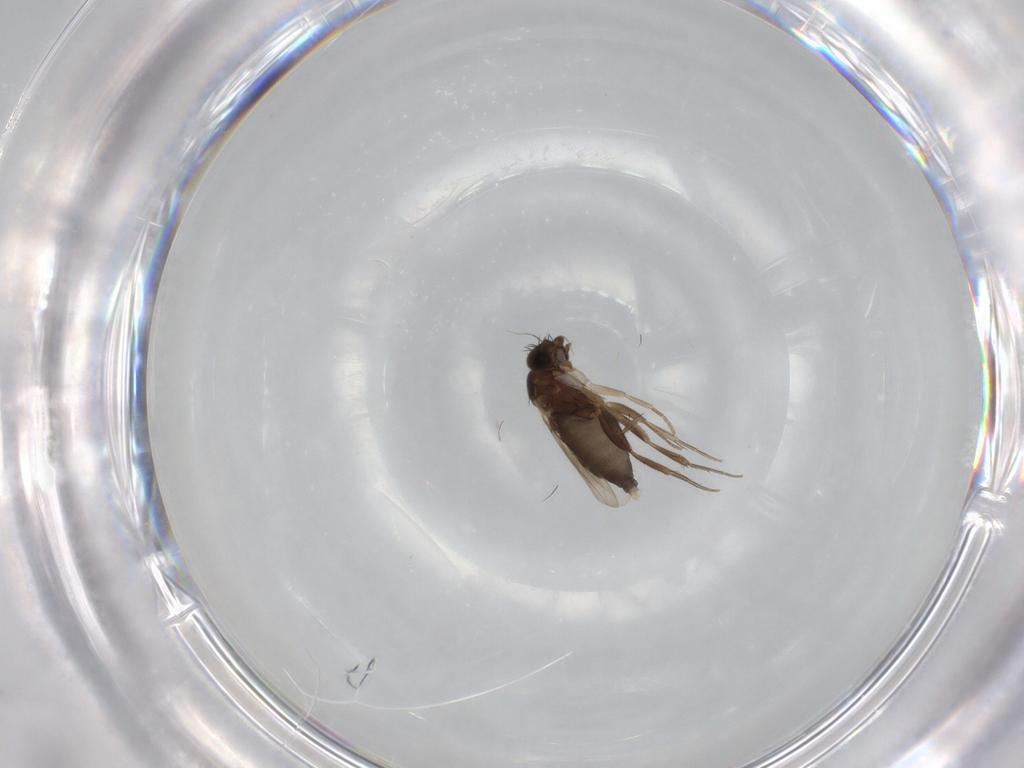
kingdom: Animalia
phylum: Arthropoda
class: Insecta
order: Diptera
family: Phoridae
